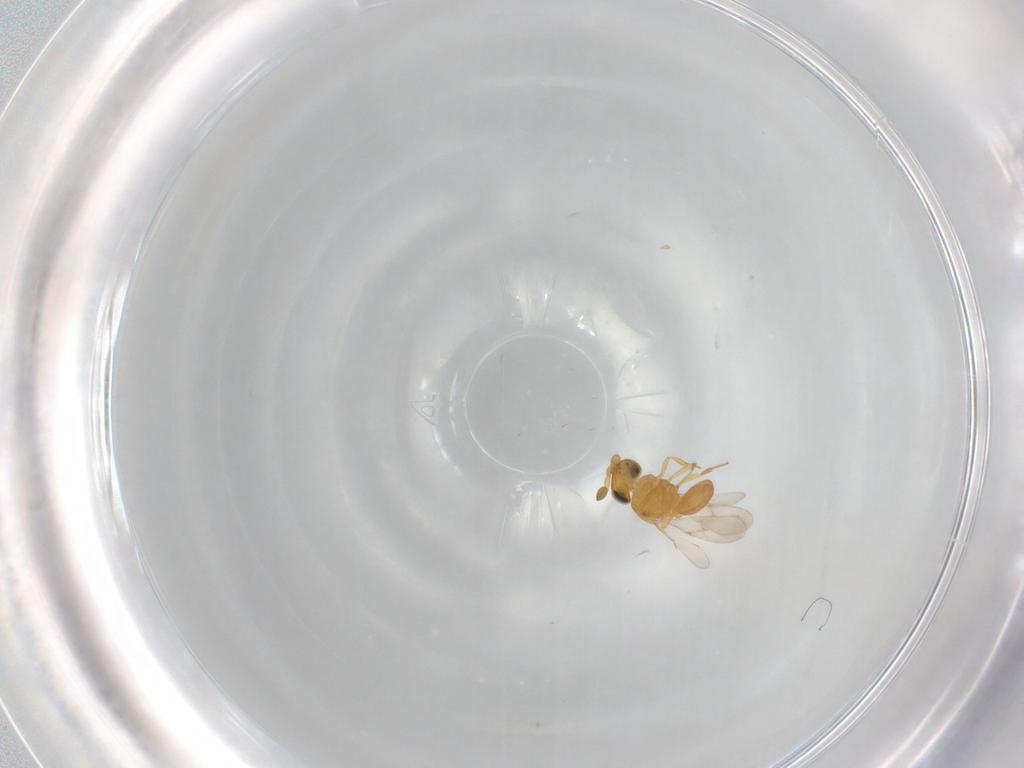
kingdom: Animalia
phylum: Arthropoda
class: Insecta
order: Hymenoptera
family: Scelionidae
